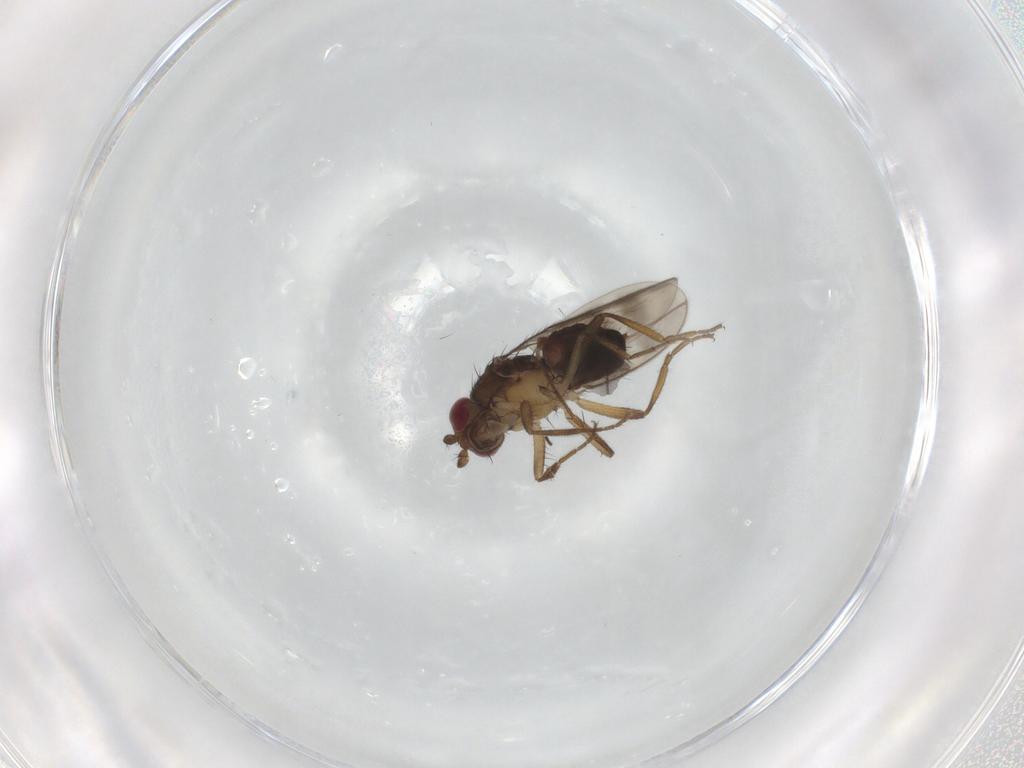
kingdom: Animalia
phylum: Arthropoda
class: Insecta
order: Diptera
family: Sphaeroceridae
